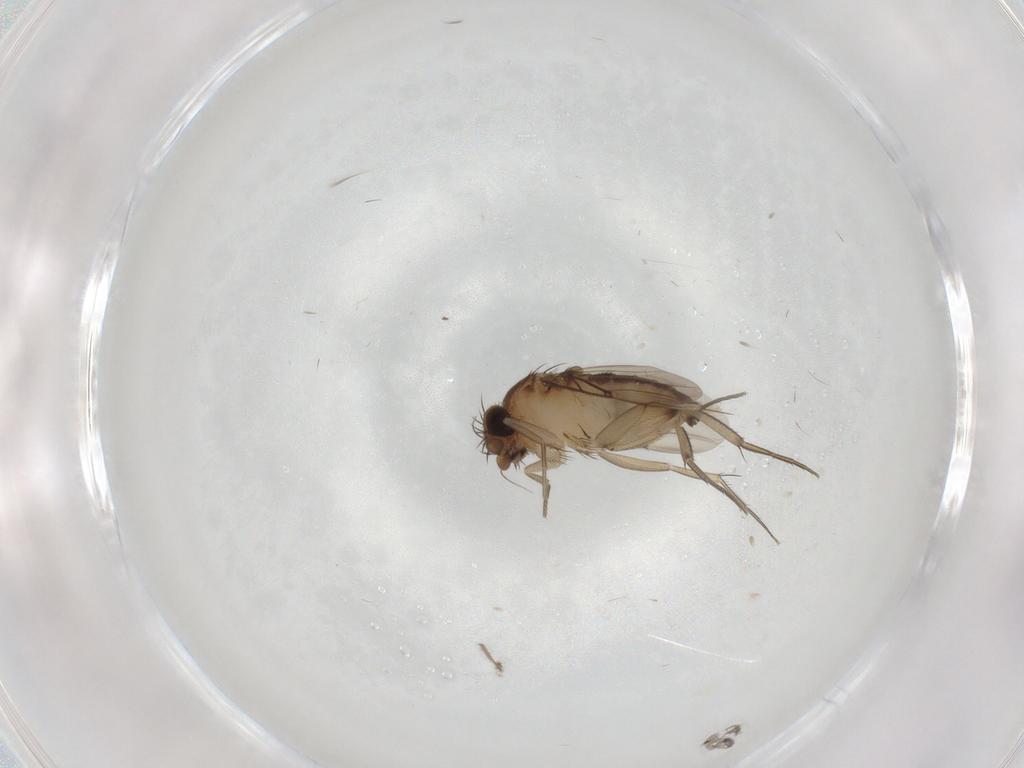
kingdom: Animalia
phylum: Arthropoda
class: Insecta
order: Diptera
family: Phoridae
